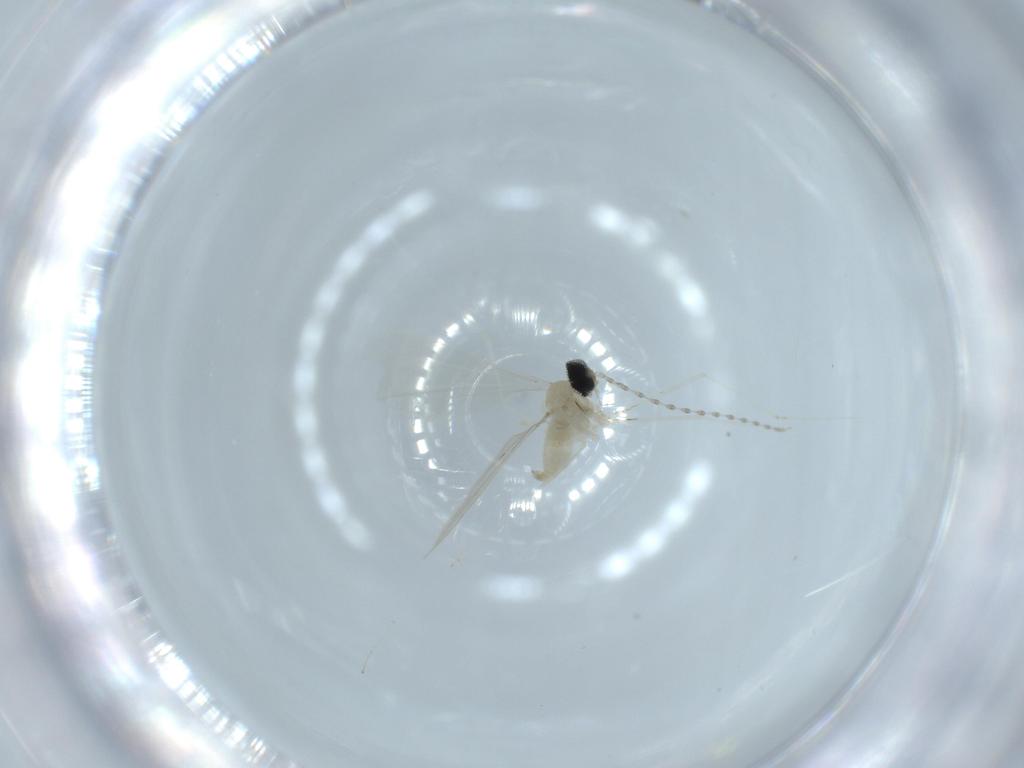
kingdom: Animalia
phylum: Arthropoda
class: Insecta
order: Diptera
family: Cecidomyiidae
